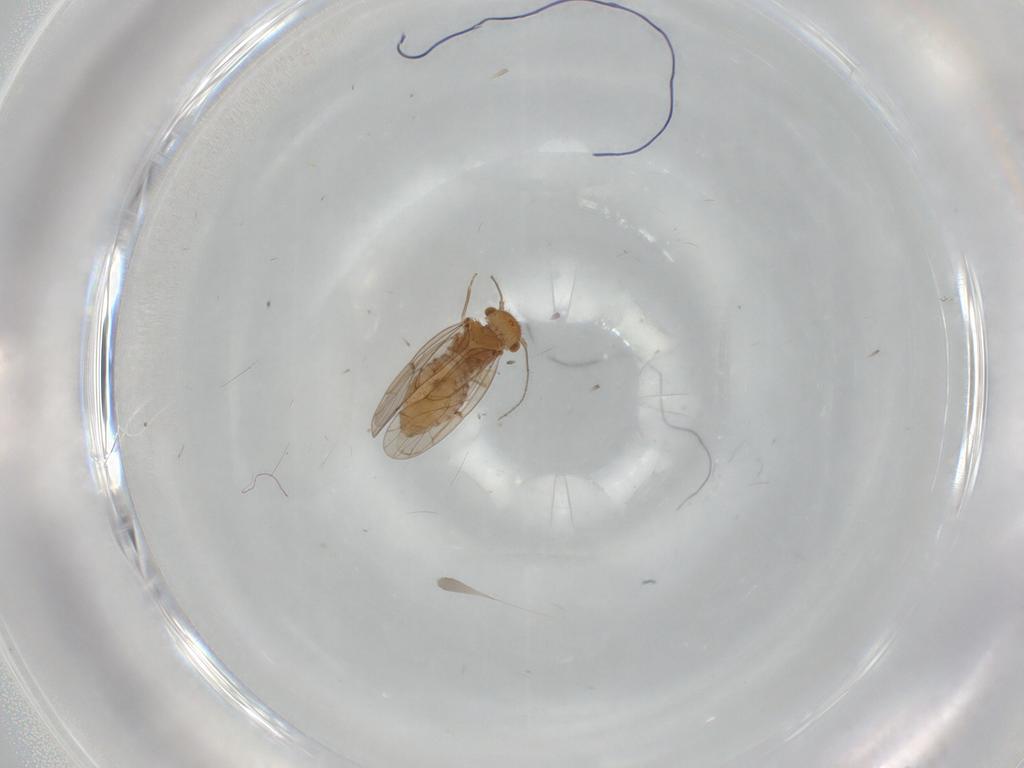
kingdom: Animalia
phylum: Arthropoda
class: Insecta
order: Psocodea
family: Ectopsocidae
